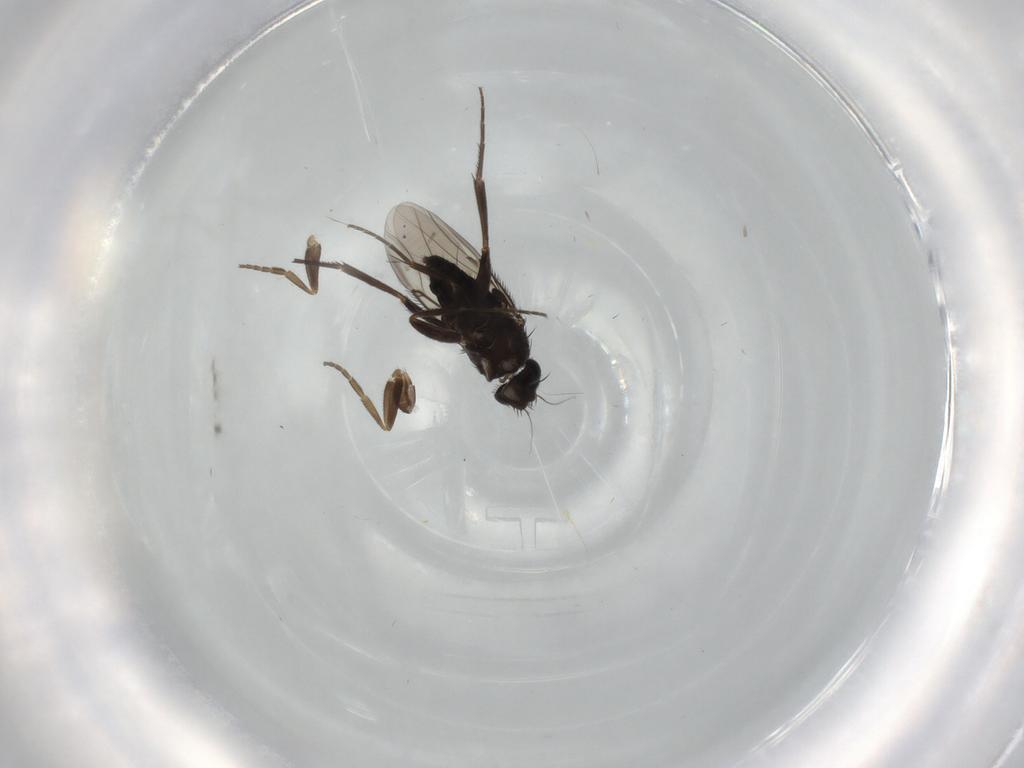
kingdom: Animalia
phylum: Arthropoda
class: Insecta
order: Diptera
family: Phoridae
